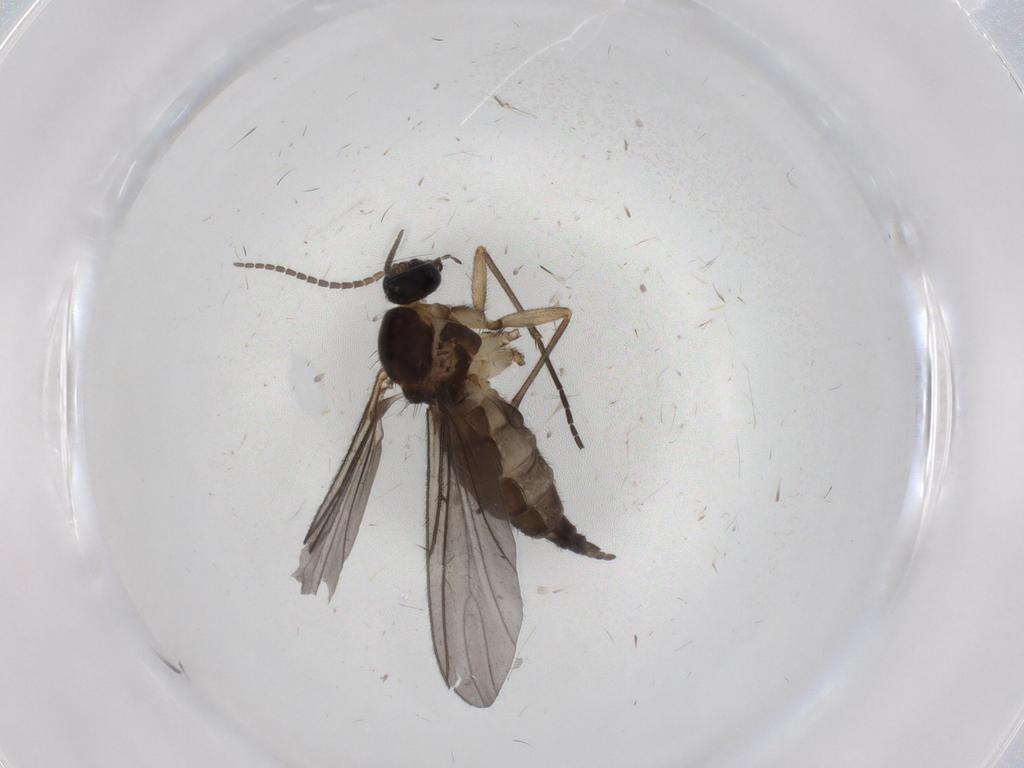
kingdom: Animalia
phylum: Arthropoda
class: Insecta
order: Diptera
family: Sciaridae
